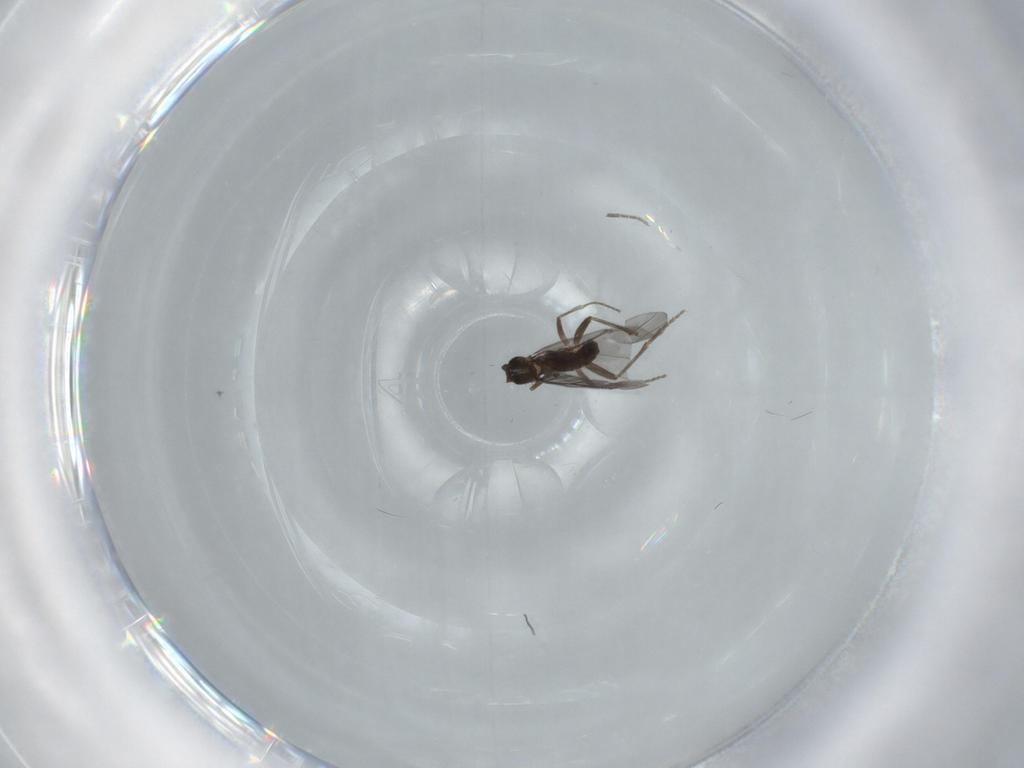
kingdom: Animalia
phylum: Arthropoda
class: Insecta
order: Diptera
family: Phoridae
